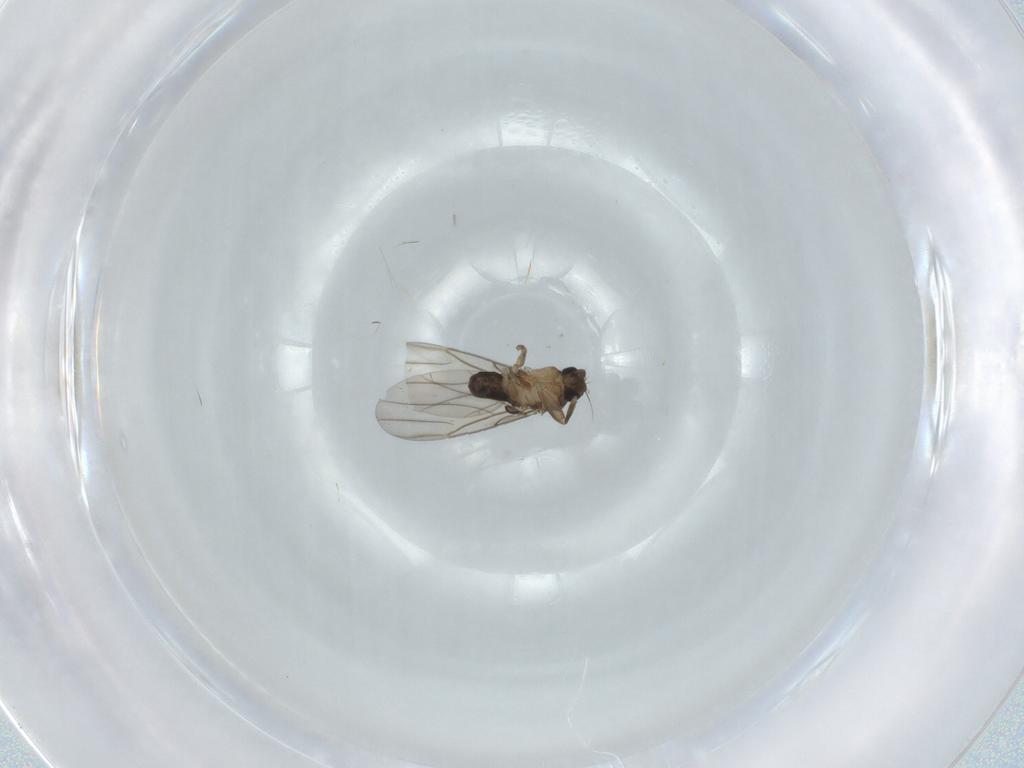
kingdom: Animalia
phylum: Arthropoda
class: Insecta
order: Diptera
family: Phoridae
